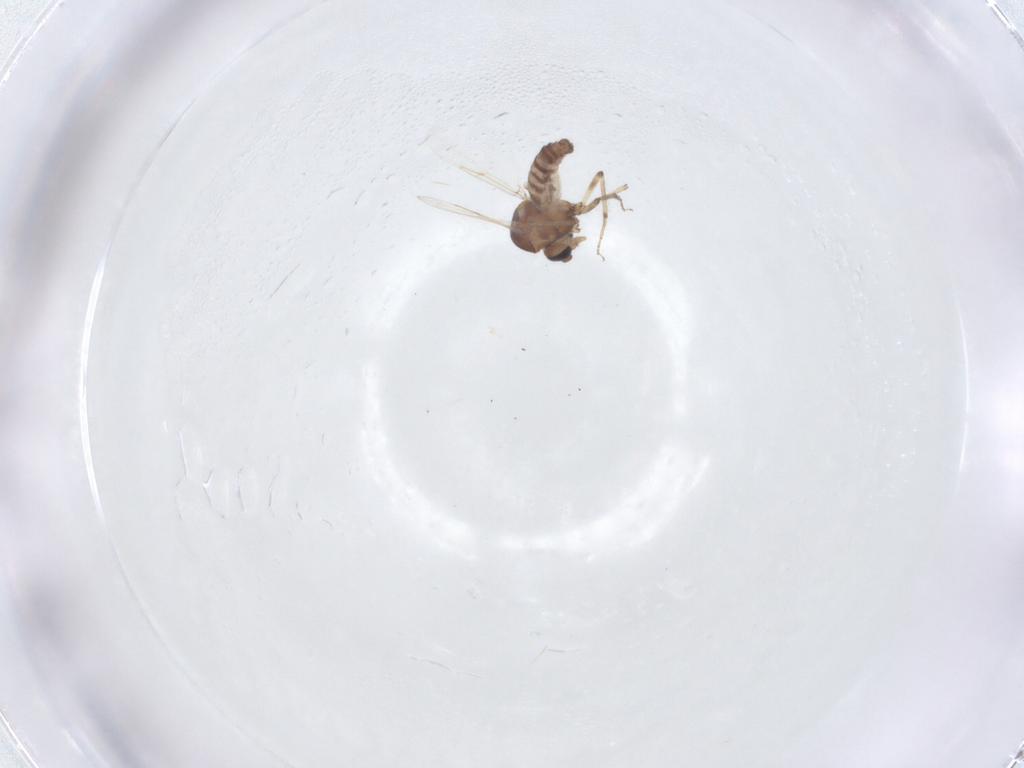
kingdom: Animalia
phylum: Arthropoda
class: Insecta
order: Diptera
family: Ceratopogonidae
